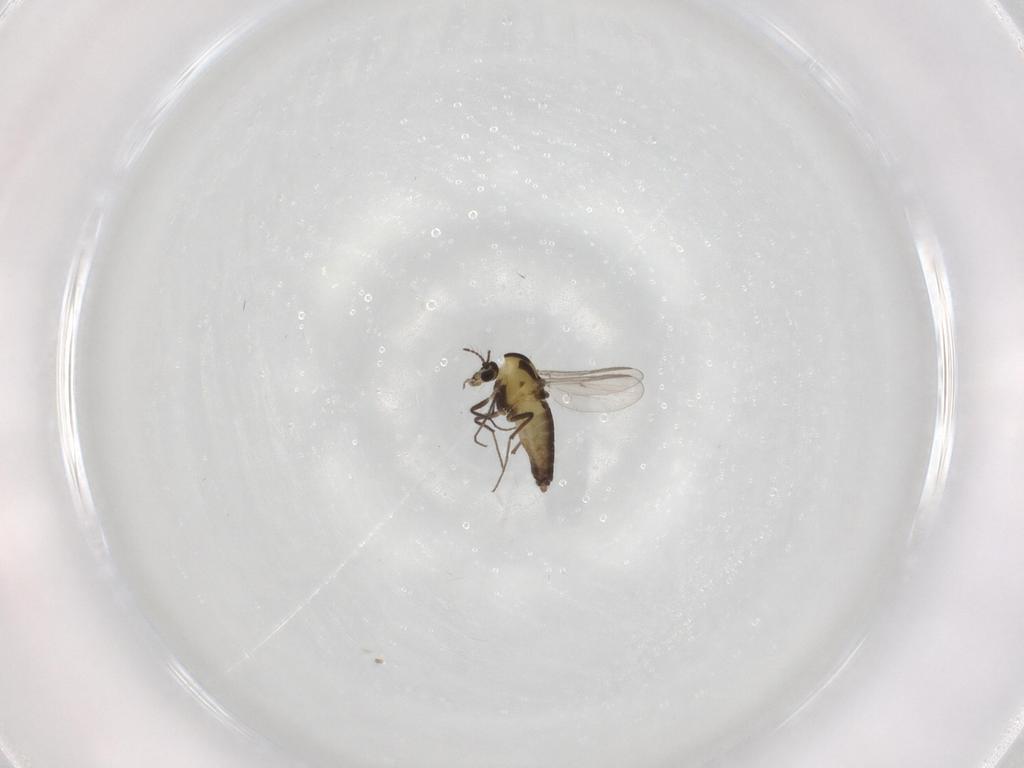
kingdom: Animalia
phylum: Arthropoda
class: Insecta
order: Diptera
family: Chironomidae
